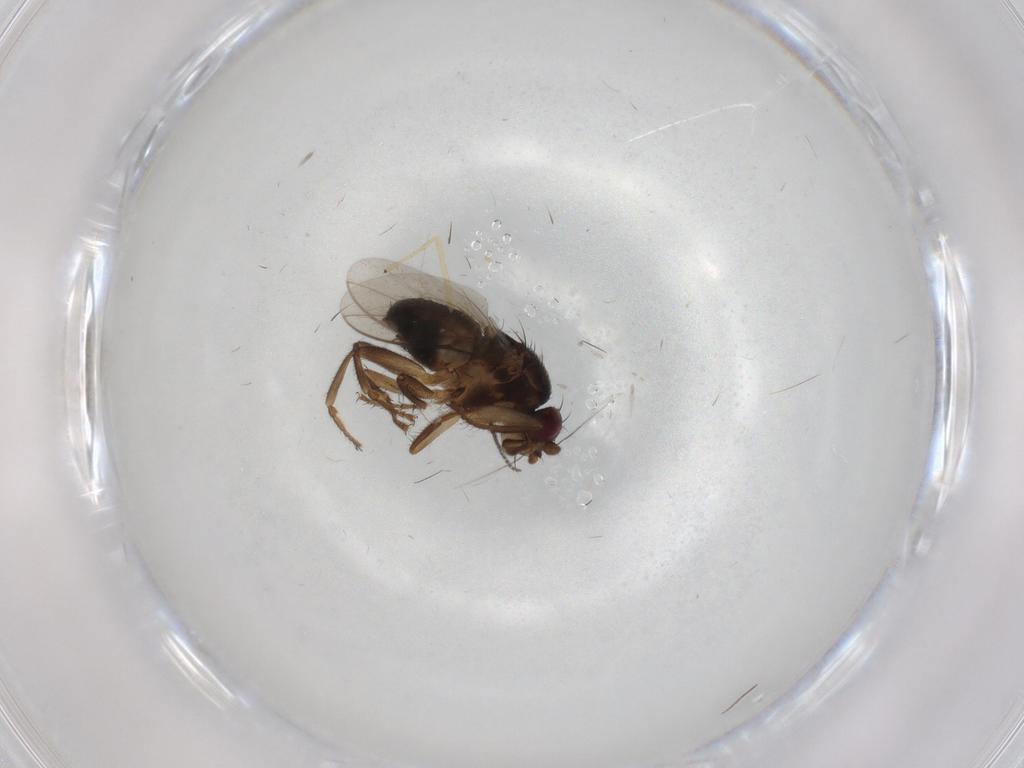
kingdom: Animalia
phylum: Arthropoda
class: Insecta
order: Diptera
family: Sphaeroceridae
